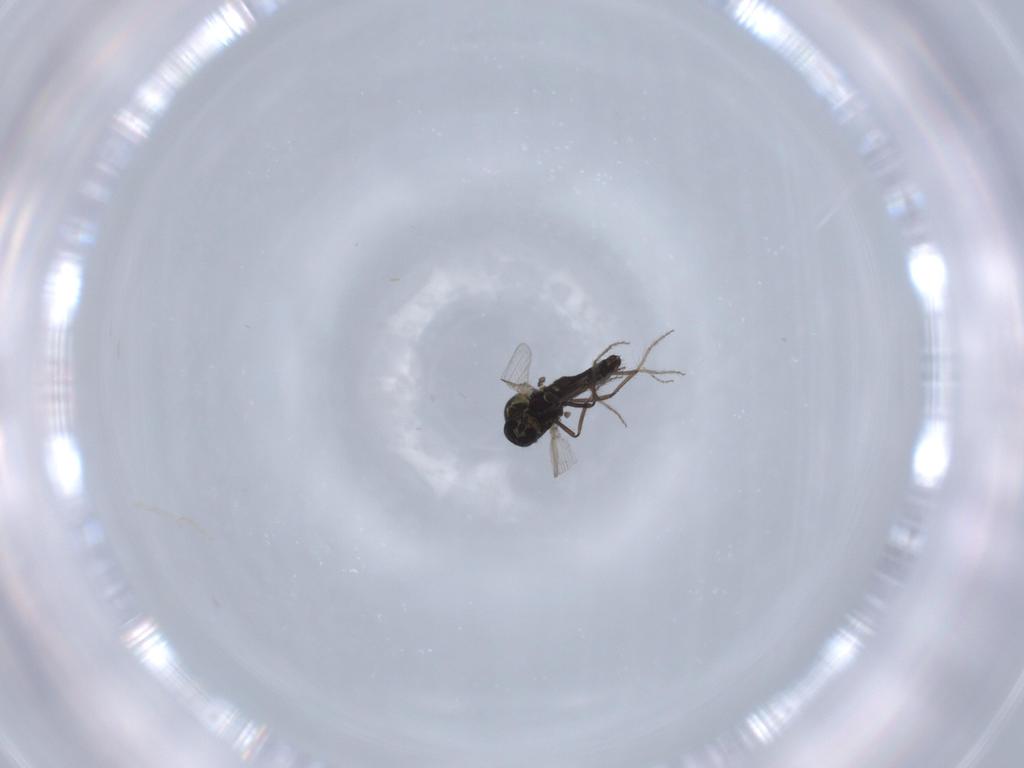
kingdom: Animalia
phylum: Arthropoda
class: Insecta
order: Diptera
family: Ceratopogonidae
